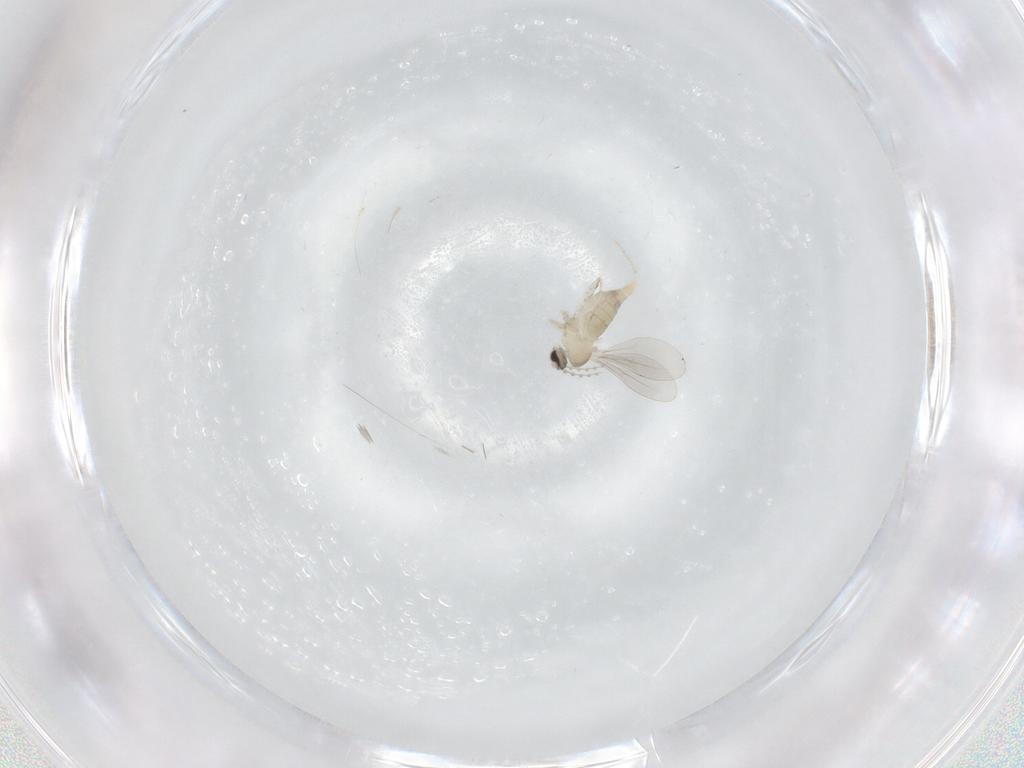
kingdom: Animalia
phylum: Arthropoda
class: Insecta
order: Diptera
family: Cecidomyiidae
